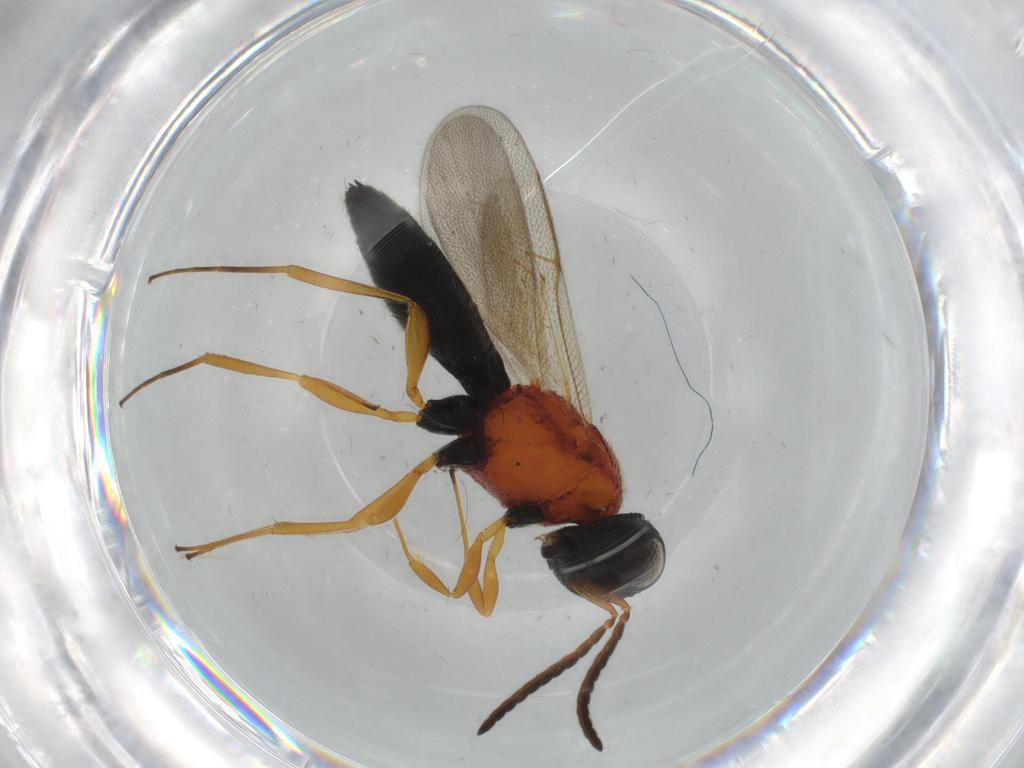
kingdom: Animalia
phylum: Arthropoda
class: Insecta
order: Hymenoptera
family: Scelionidae
